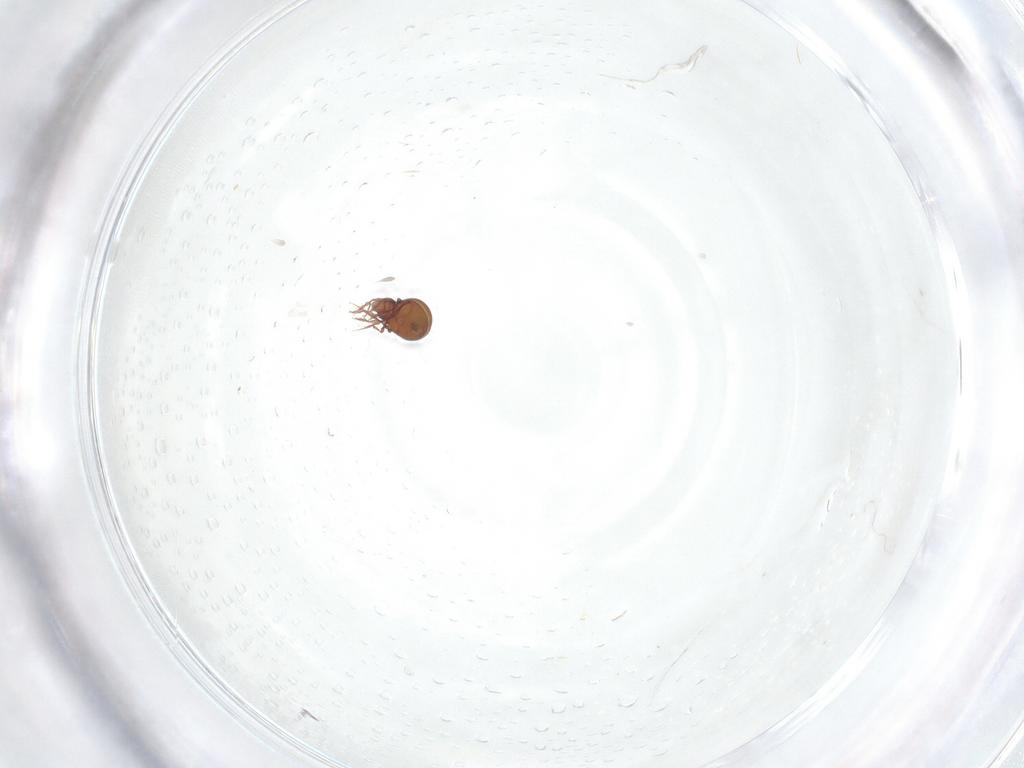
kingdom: Animalia
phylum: Arthropoda
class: Arachnida
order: Sarcoptiformes
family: Oppiidae
